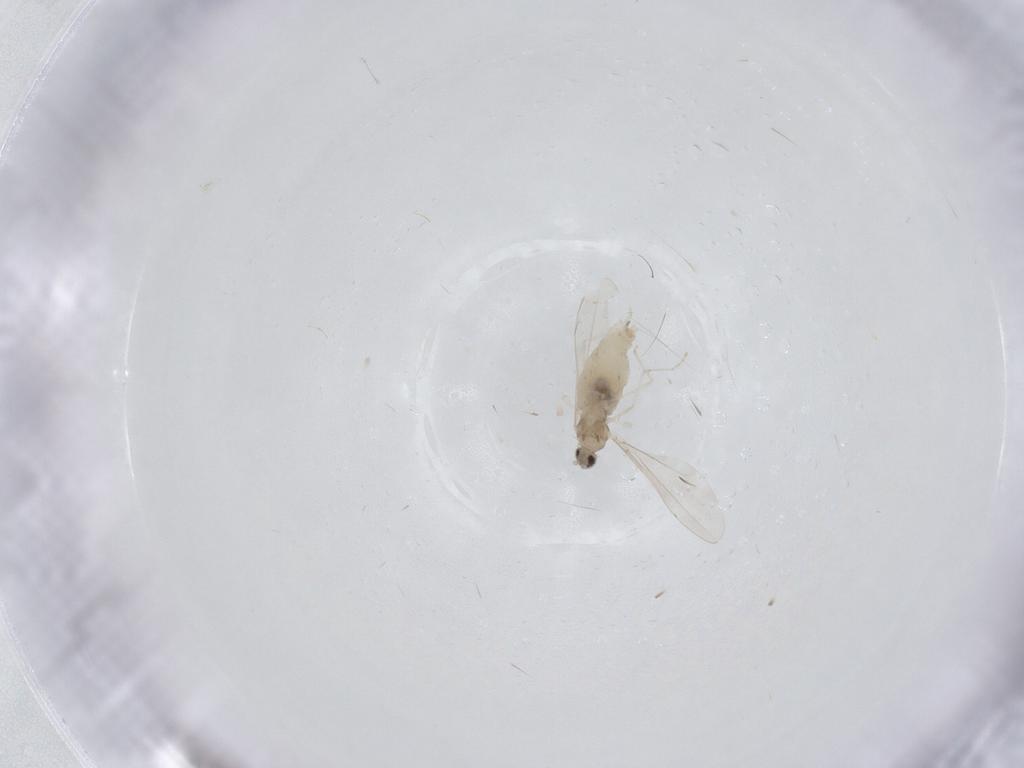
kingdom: Animalia
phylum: Arthropoda
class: Insecta
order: Diptera
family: Cecidomyiidae
